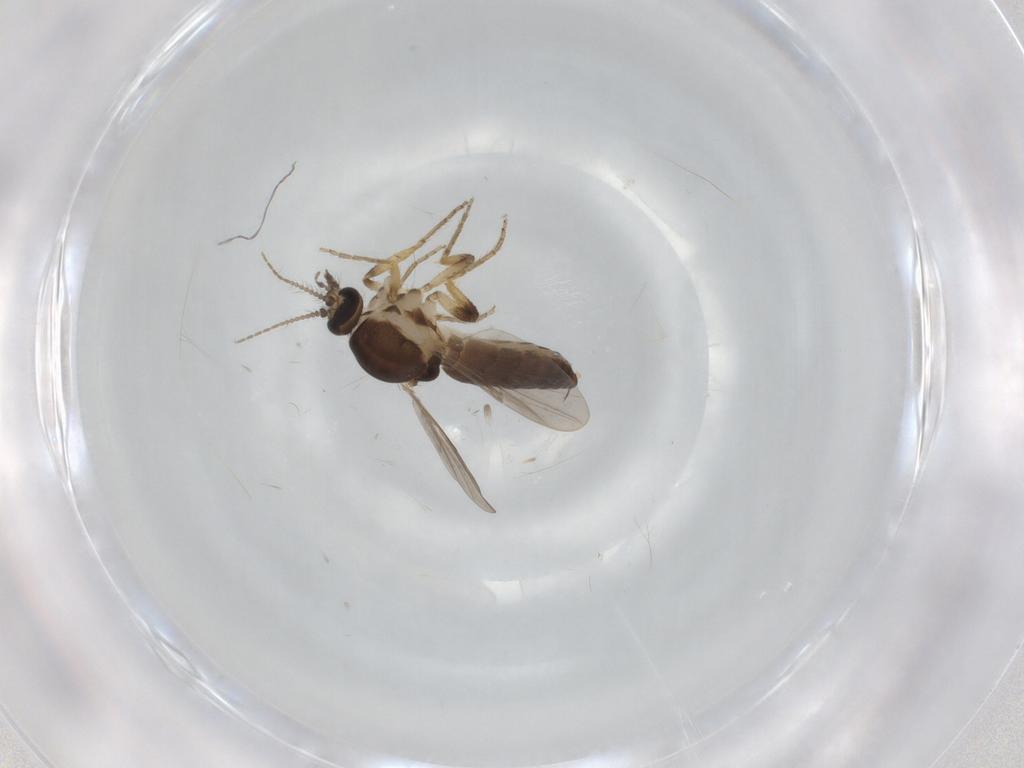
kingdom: Animalia
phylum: Arthropoda
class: Insecta
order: Diptera
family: Ceratopogonidae
